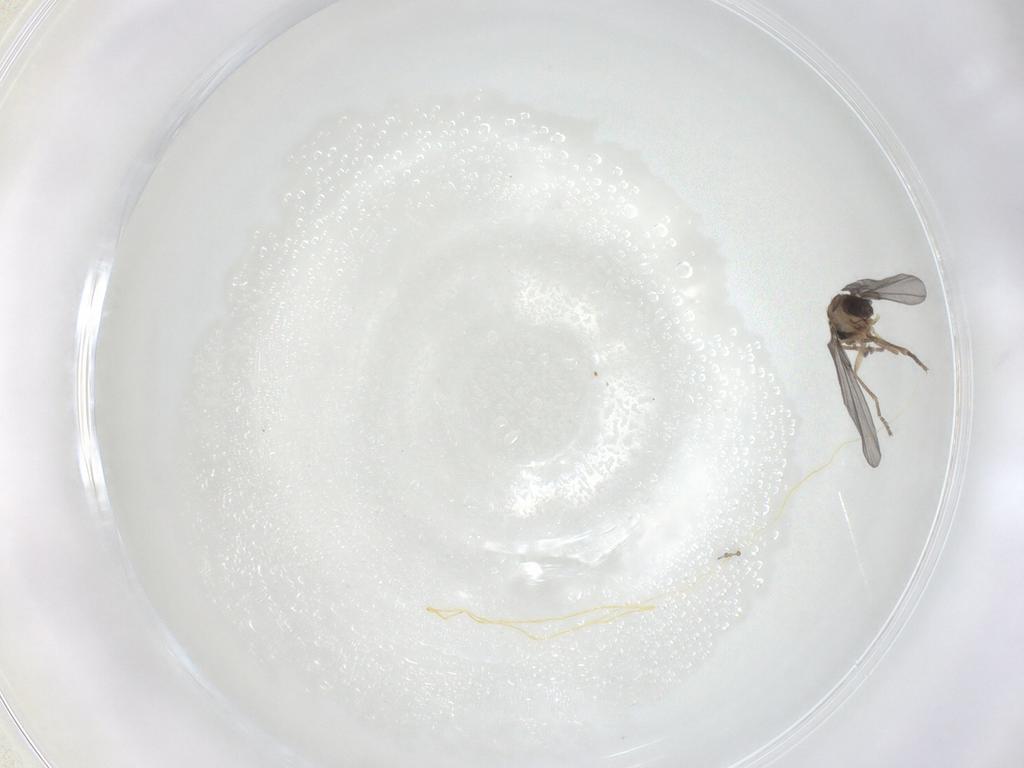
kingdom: Animalia
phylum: Arthropoda
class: Insecta
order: Diptera
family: Phoridae
